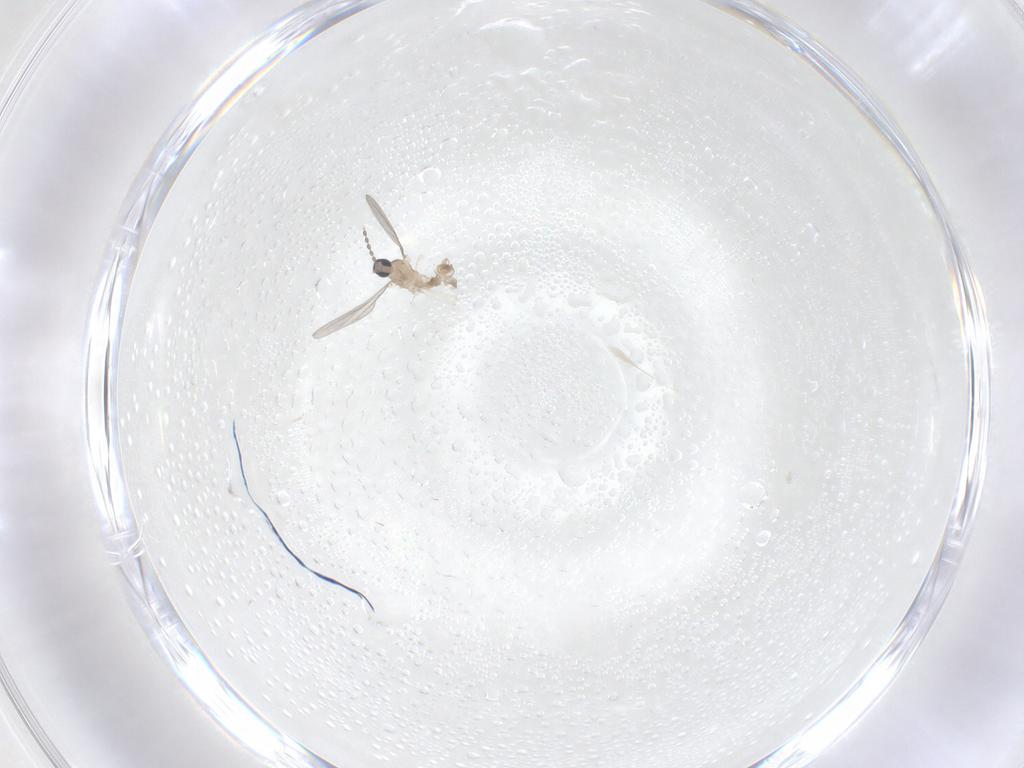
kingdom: Animalia
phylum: Arthropoda
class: Insecta
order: Diptera
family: Cecidomyiidae
